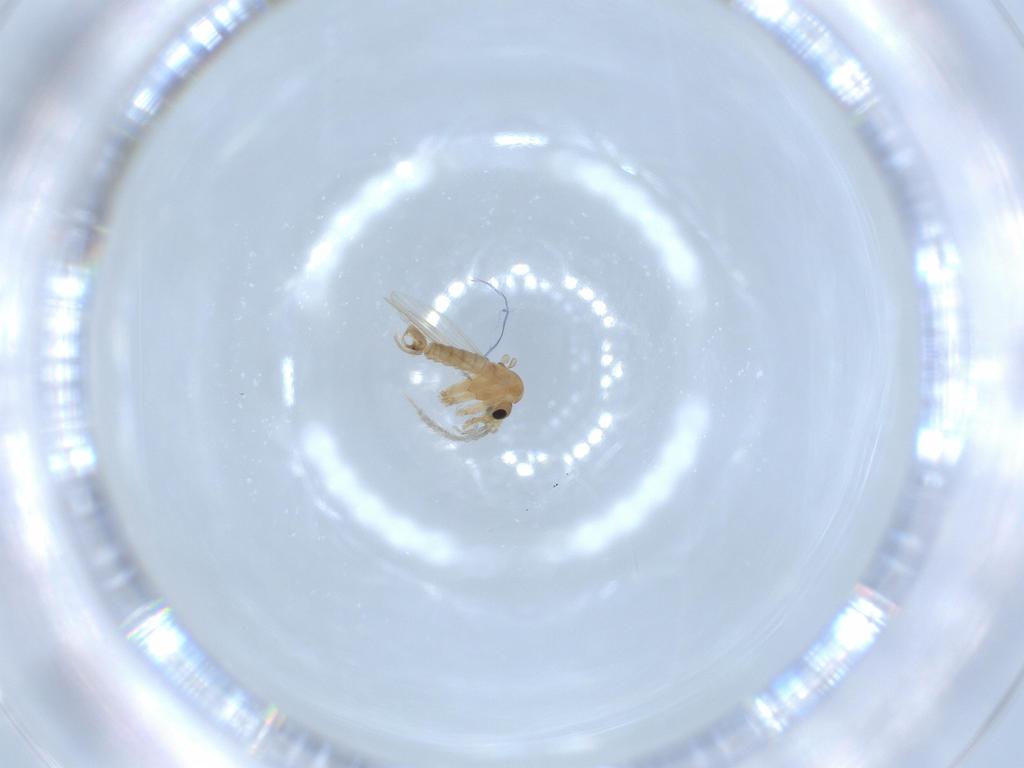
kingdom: Animalia
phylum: Arthropoda
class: Insecta
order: Diptera
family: Psychodidae
